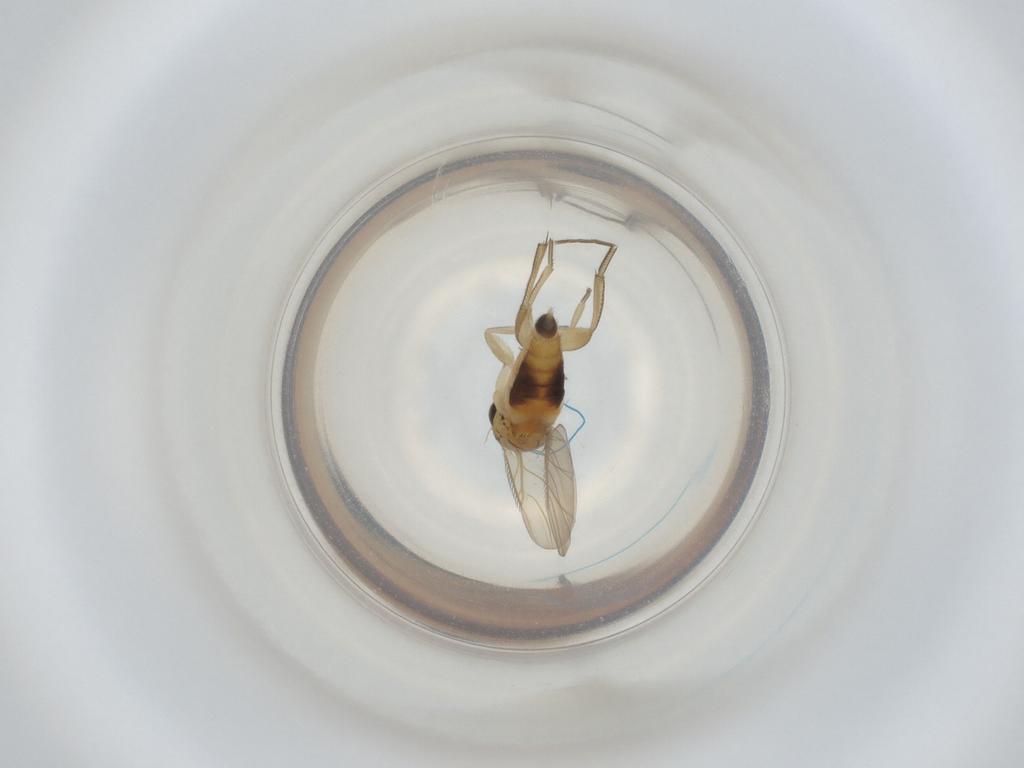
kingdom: Animalia
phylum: Arthropoda
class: Insecta
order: Diptera
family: Phoridae
